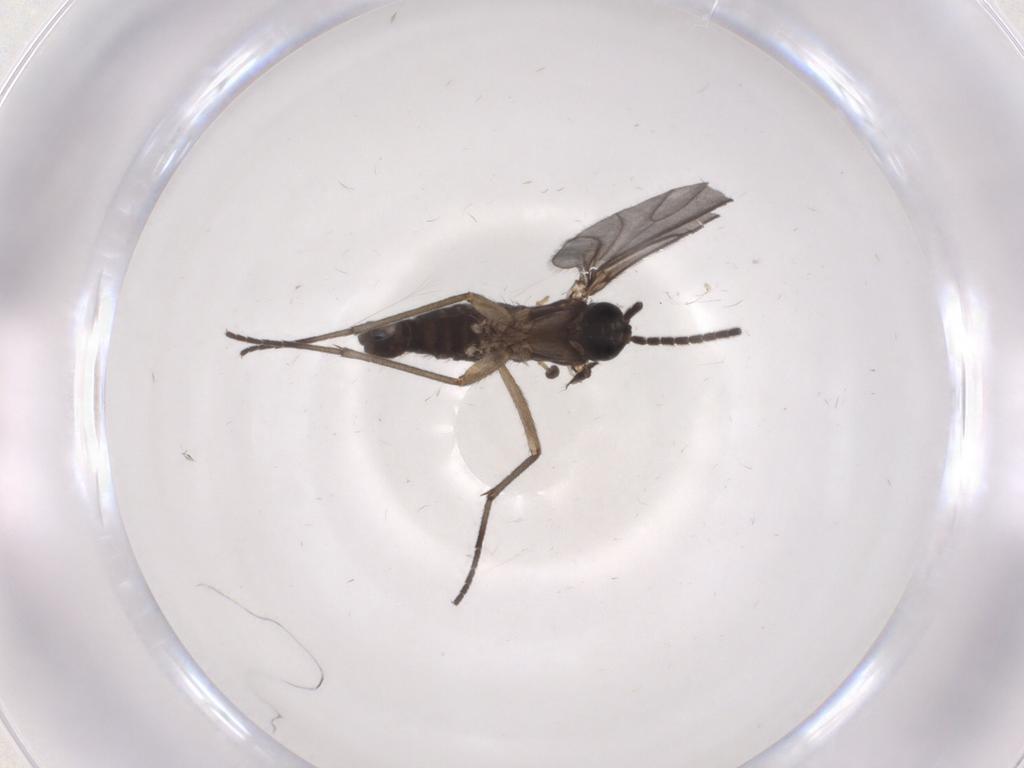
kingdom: Animalia
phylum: Arthropoda
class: Insecta
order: Diptera
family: Sciaridae
